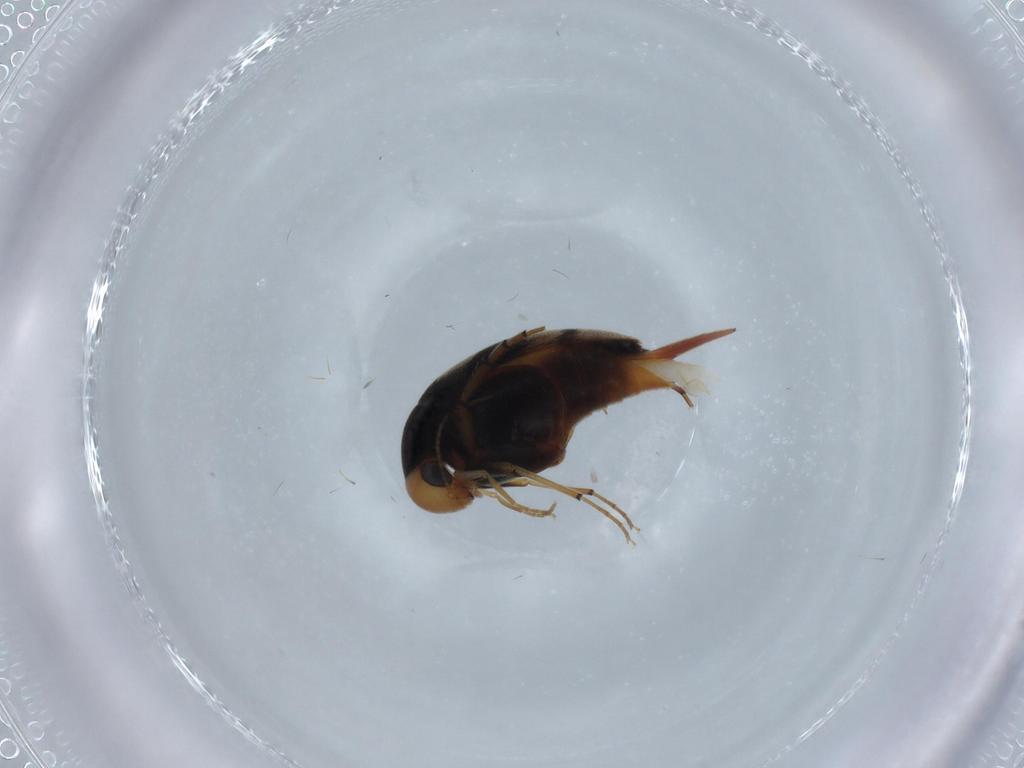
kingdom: Animalia
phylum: Arthropoda
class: Insecta
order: Coleoptera
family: Mordellidae
